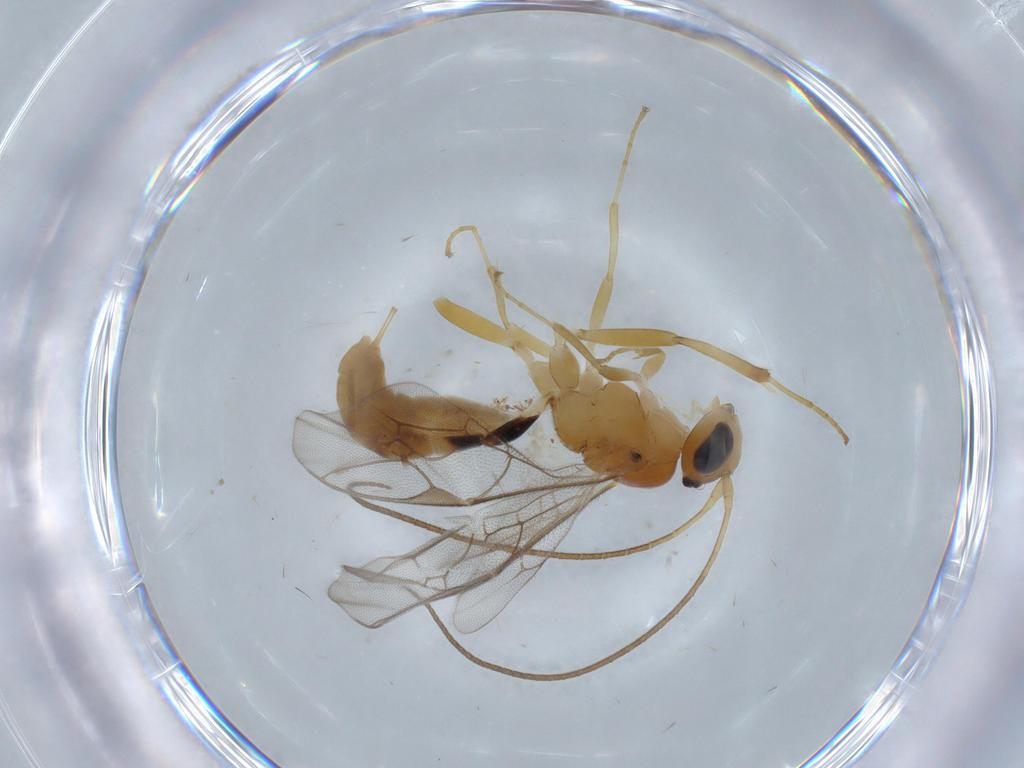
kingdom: Animalia
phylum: Arthropoda
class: Insecta
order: Hymenoptera
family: Ichneumonidae
